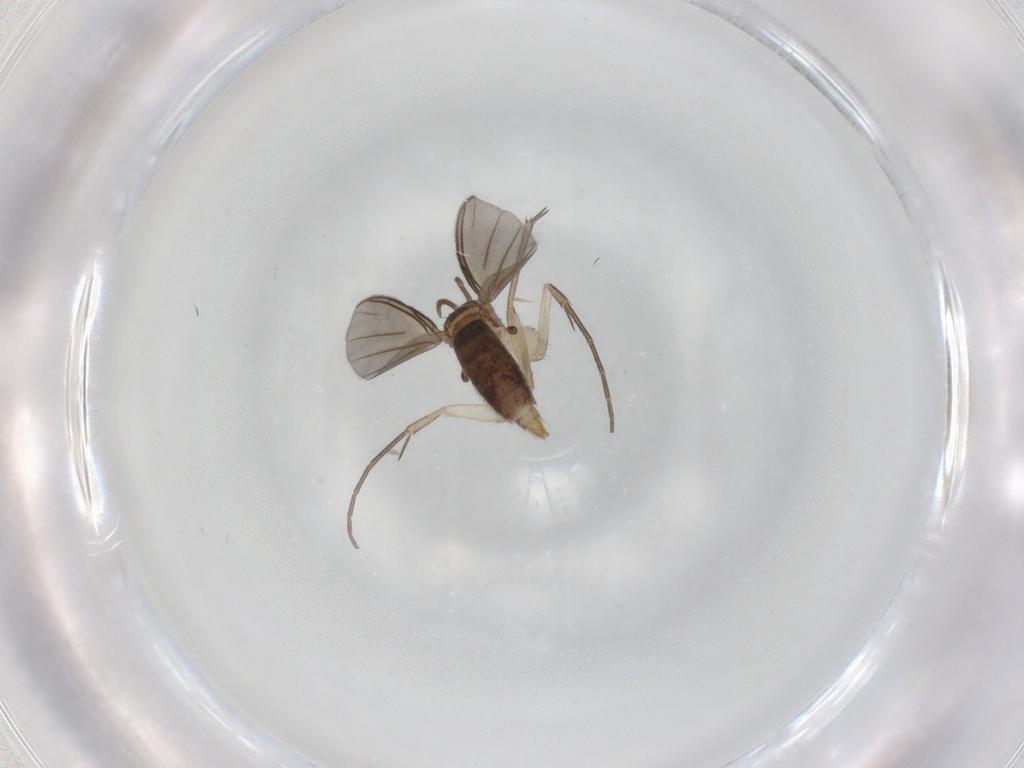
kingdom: Animalia
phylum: Arthropoda
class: Insecta
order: Diptera
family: Mycetophilidae
